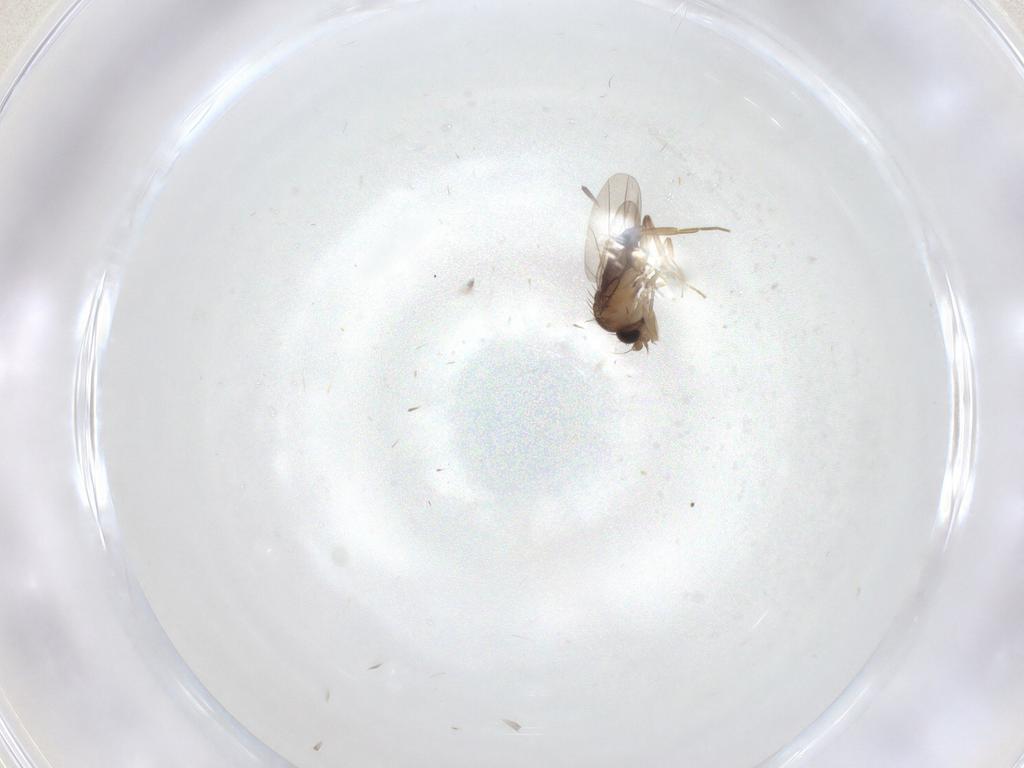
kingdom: Animalia
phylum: Arthropoda
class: Insecta
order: Diptera
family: Phoridae
